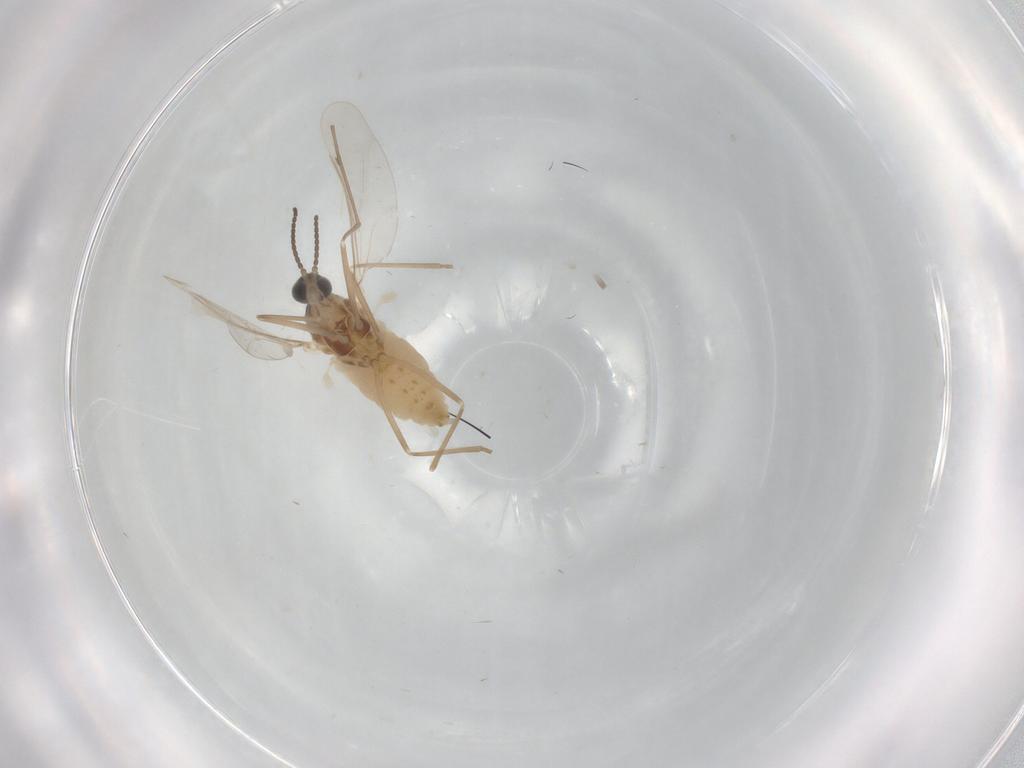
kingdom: Animalia
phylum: Arthropoda
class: Insecta
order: Diptera
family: Cecidomyiidae
